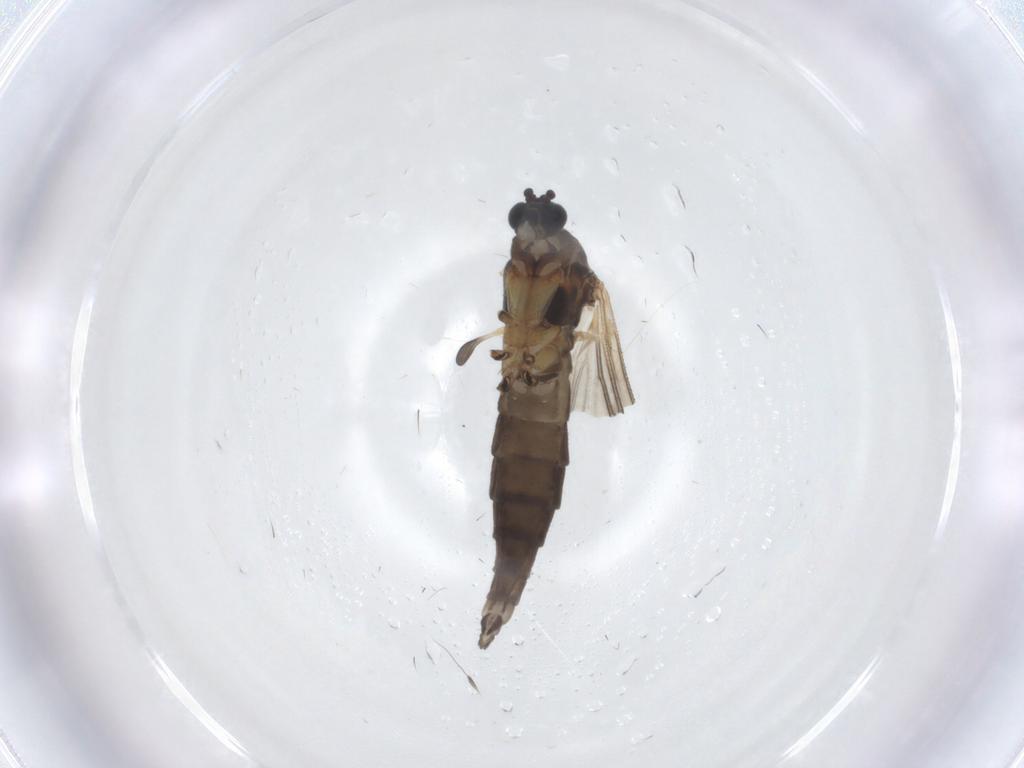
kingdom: Animalia
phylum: Arthropoda
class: Insecta
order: Diptera
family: Sciaridae
